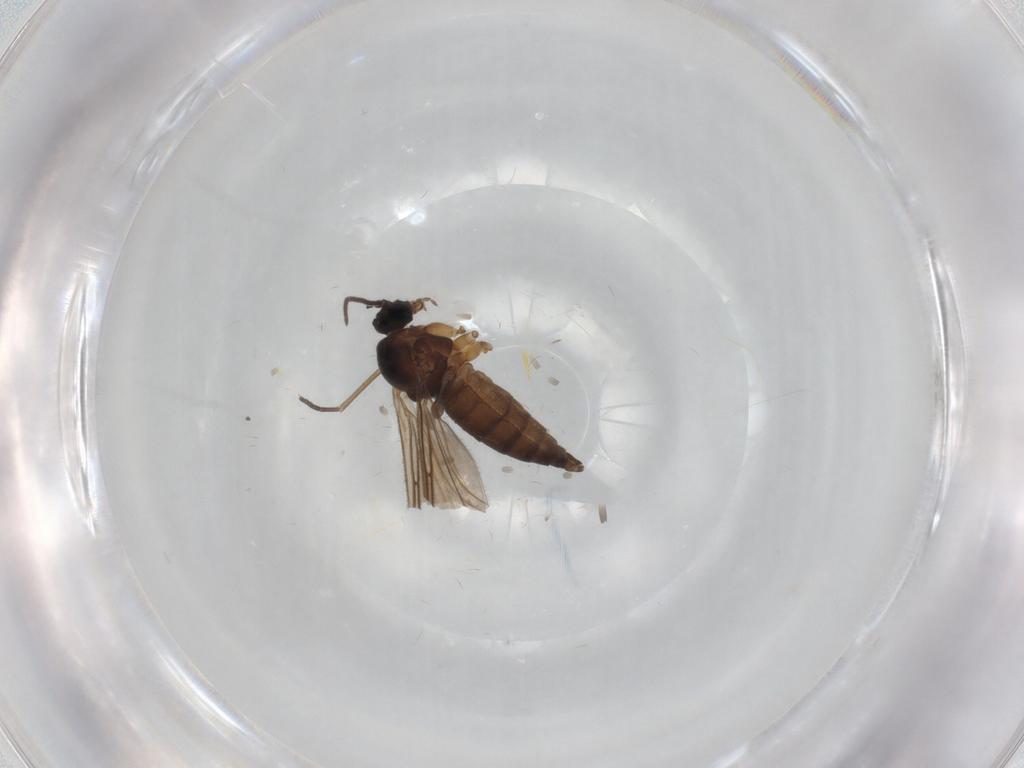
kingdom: Animalia
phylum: Arthropoda
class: Insecta
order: Diptera
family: Sciaridae
